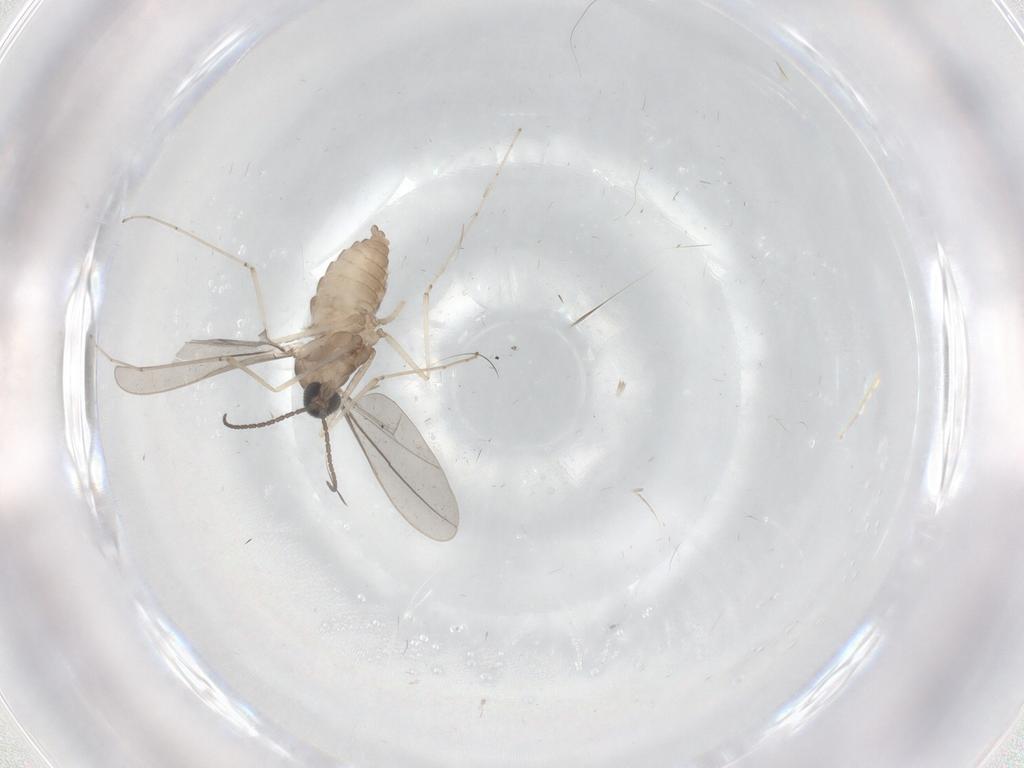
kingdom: Animalia
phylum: Arthropoda
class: Insecta
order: Diptera
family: Cecidomyiidae
